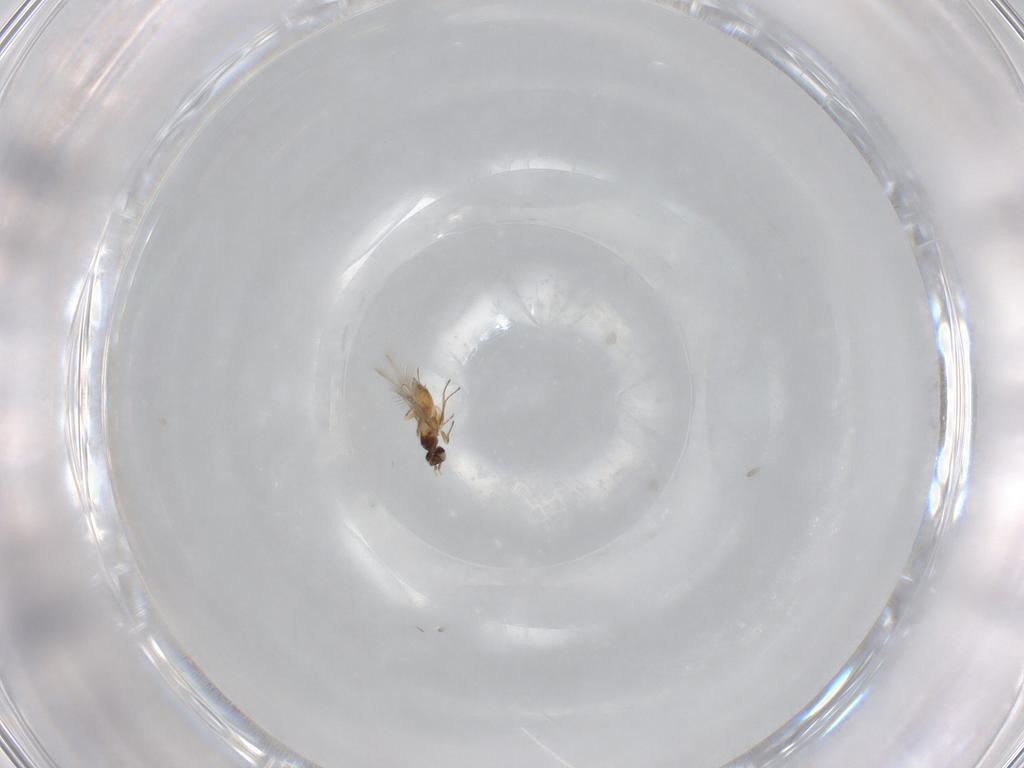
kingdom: Animalia
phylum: Arthropoda
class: Insecta
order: Hymenoptera
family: Mymaridae
